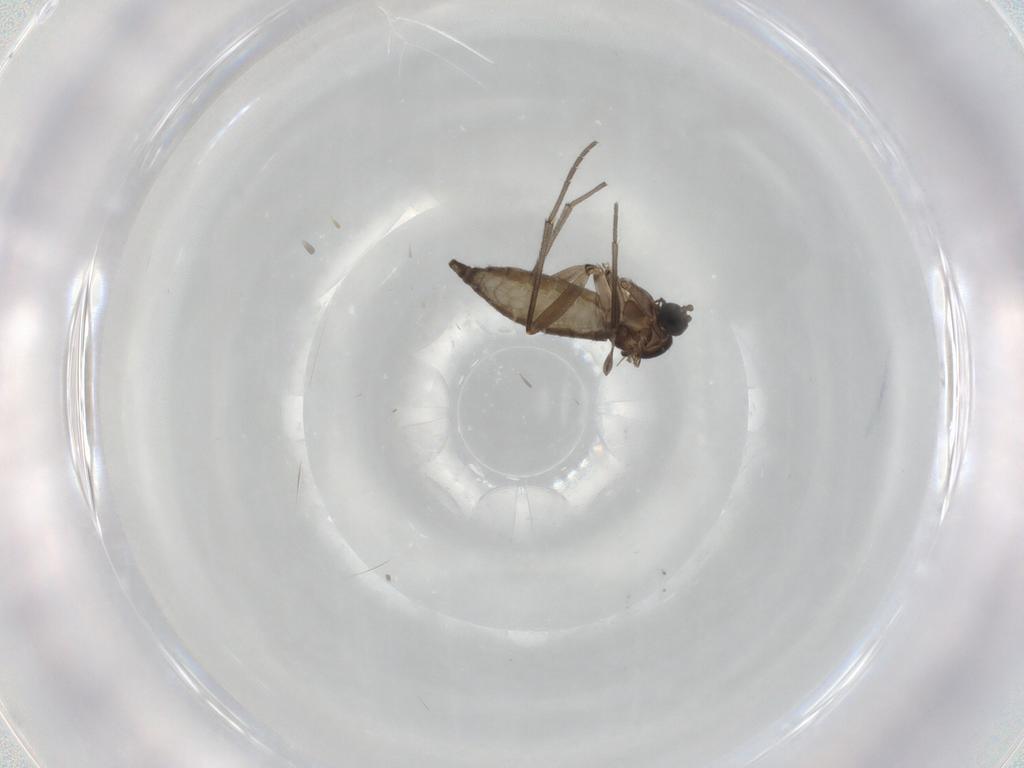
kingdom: Animalia
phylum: Arthropoda
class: Insecta
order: Diptera
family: Sciaridae
